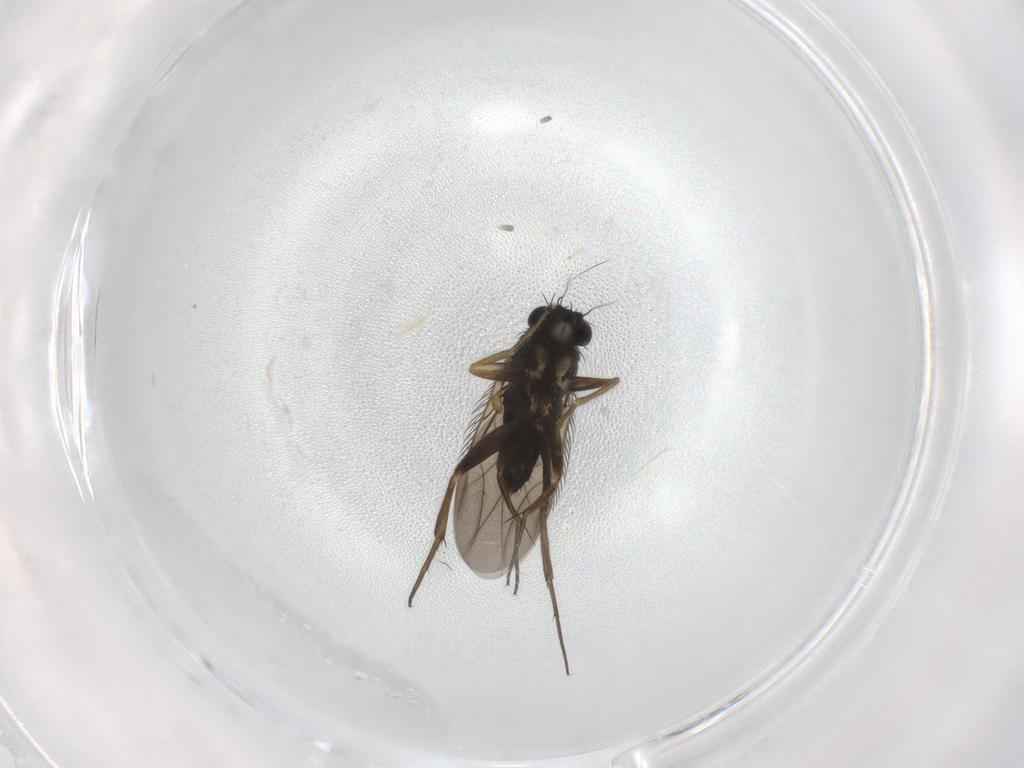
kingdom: Animalia
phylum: Arthropoda
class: Insecta
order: Diptera
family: Phoridae
